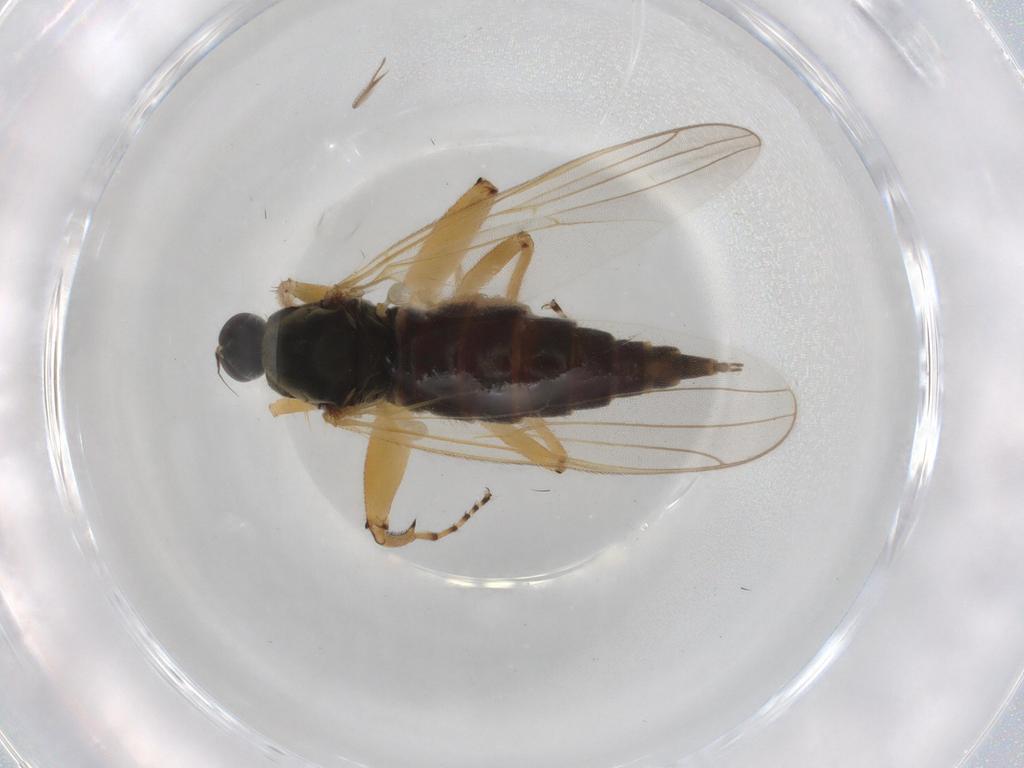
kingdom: Animalia
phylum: Arthropoda
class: Insecta
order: Diptera
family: Hybotidae
